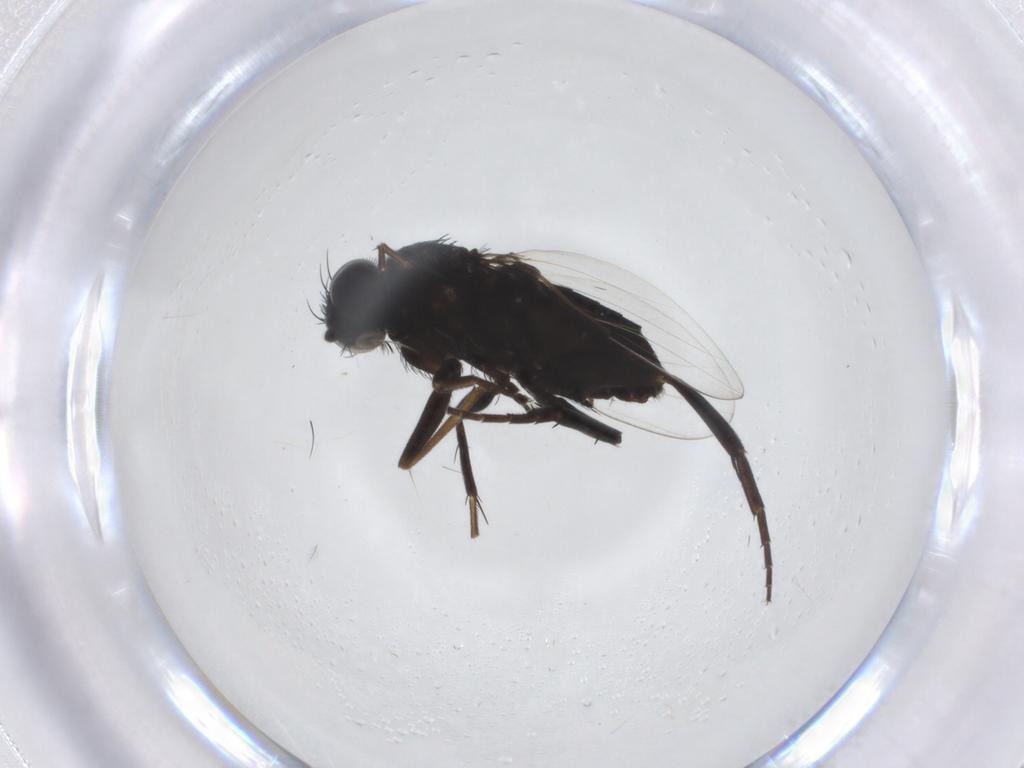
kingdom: Animalia
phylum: Arthropoda
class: Insecta
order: Diptera
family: Phoridae
